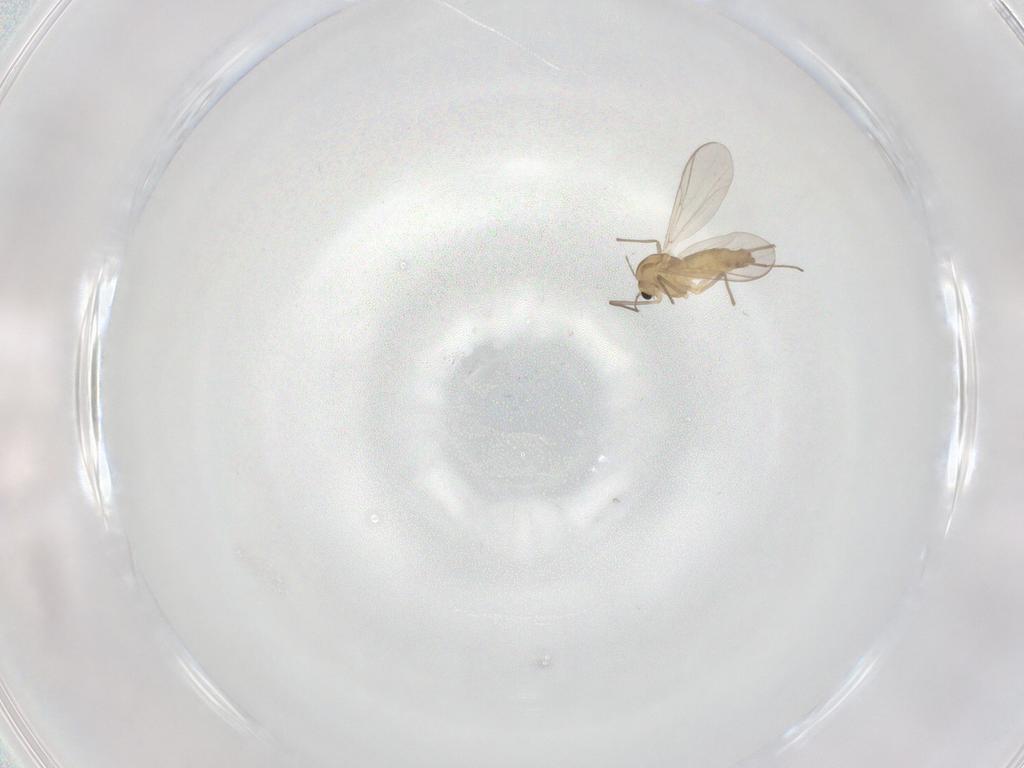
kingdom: Animalia
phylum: Arthropoda
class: Insecta
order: Diptera
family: Chironomidae
